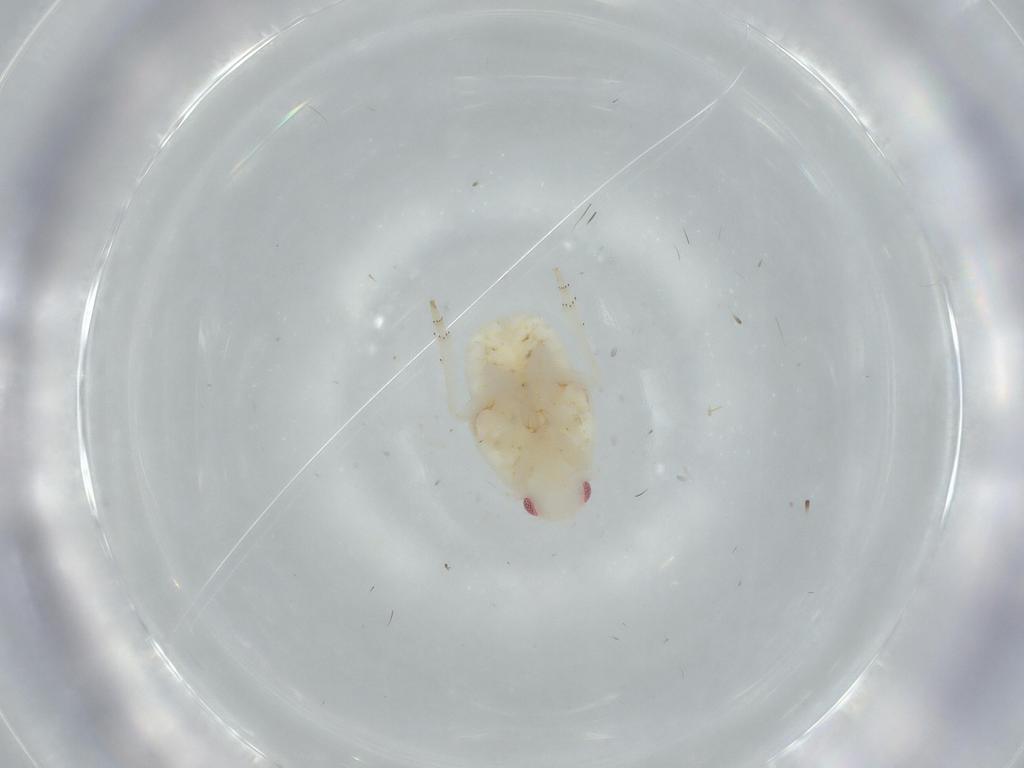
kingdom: Animalia
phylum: Arthropoda
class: Insecta
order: Hemiptera
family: Flatidae
